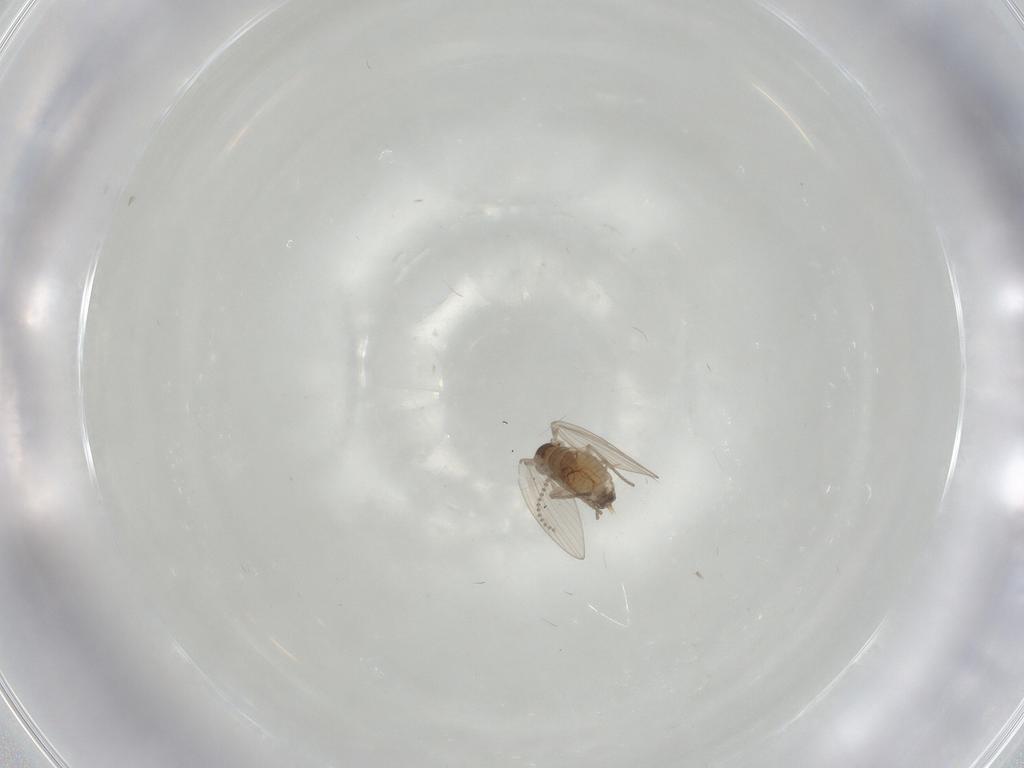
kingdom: Animalia
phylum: Arthropoda
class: Insecta
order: Diptera
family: Psychodidae
